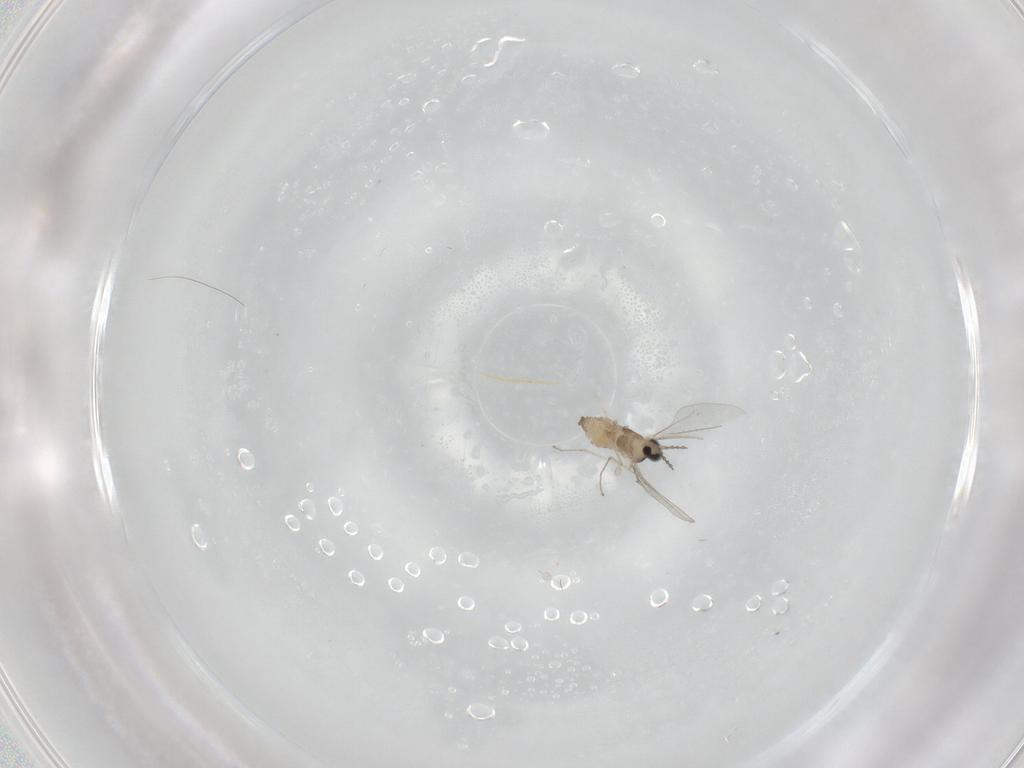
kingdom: Animalia
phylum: Arthropoda
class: Insecta
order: Diptera
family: Cecidomyiidae
